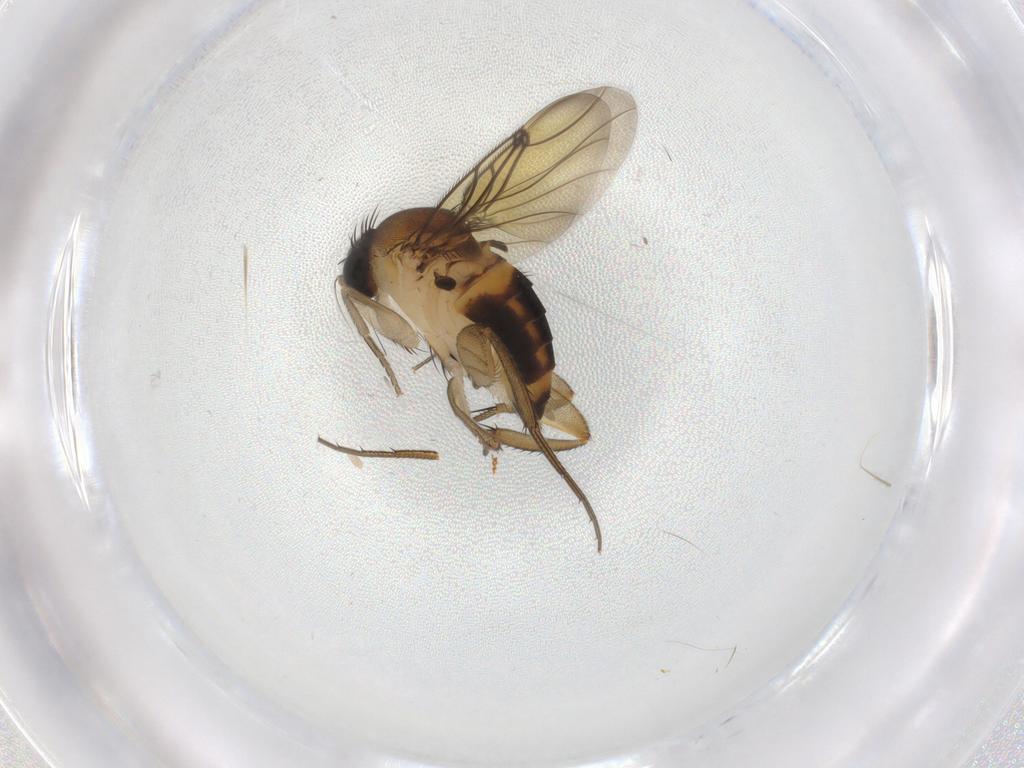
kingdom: Animalia
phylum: Arthropoda
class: Insecta
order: Diptera
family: Sciaridae
